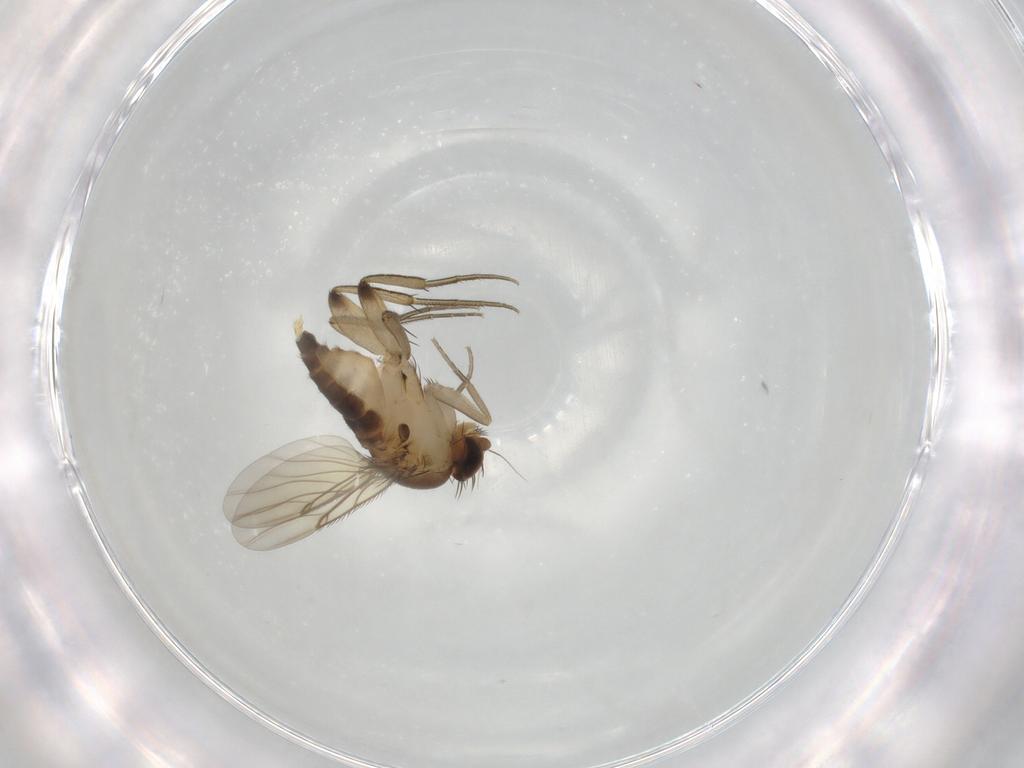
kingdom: Animalia
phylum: Arthropoda
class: Insecta
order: Diptera
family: Phoridae
